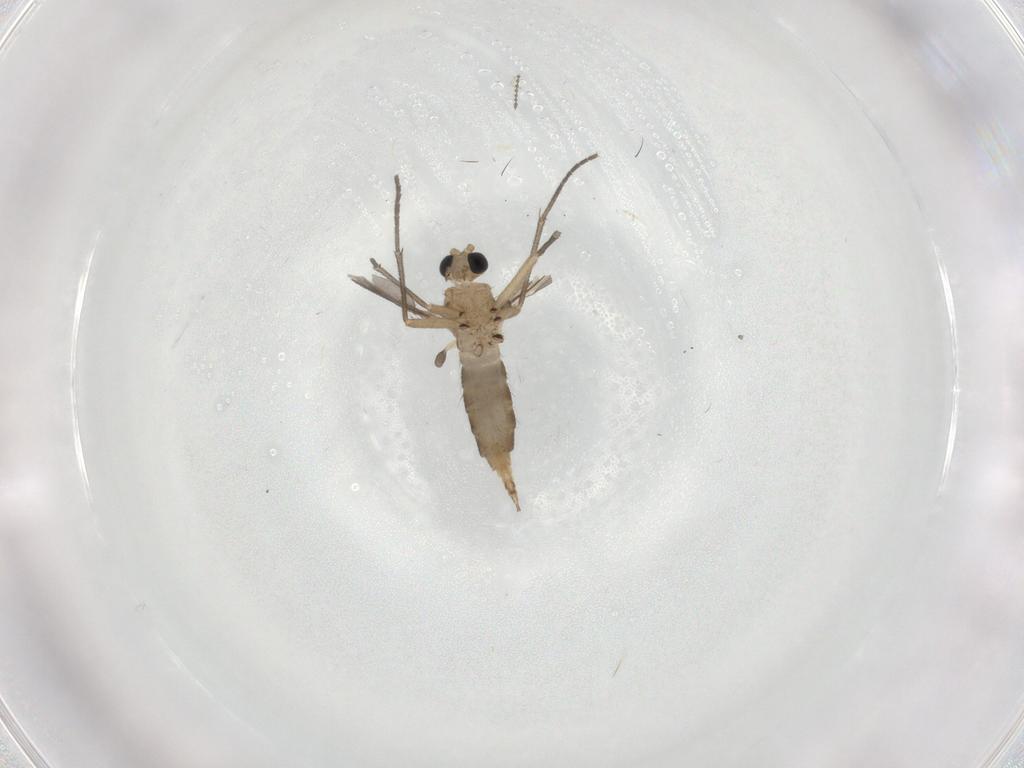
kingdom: Animalia
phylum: Arthropoda
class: Insecta
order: Diptera
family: Sciaridae
